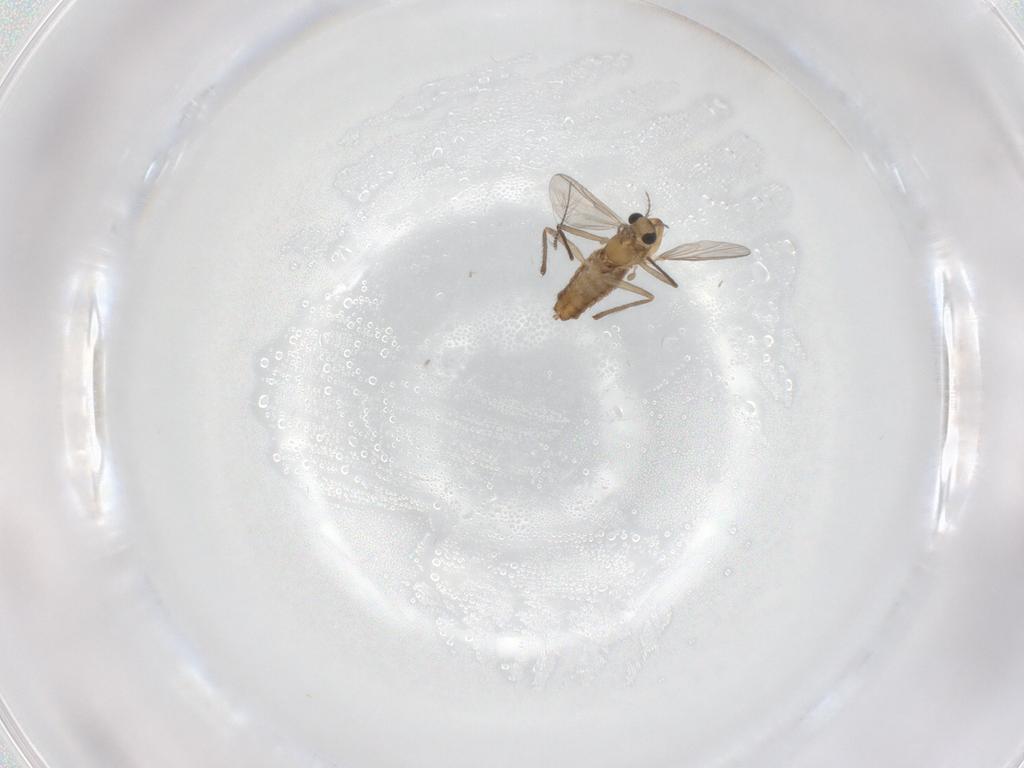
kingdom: Animalia
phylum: Arthropoda
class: Insecta
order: Diptera
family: Chironomidae
